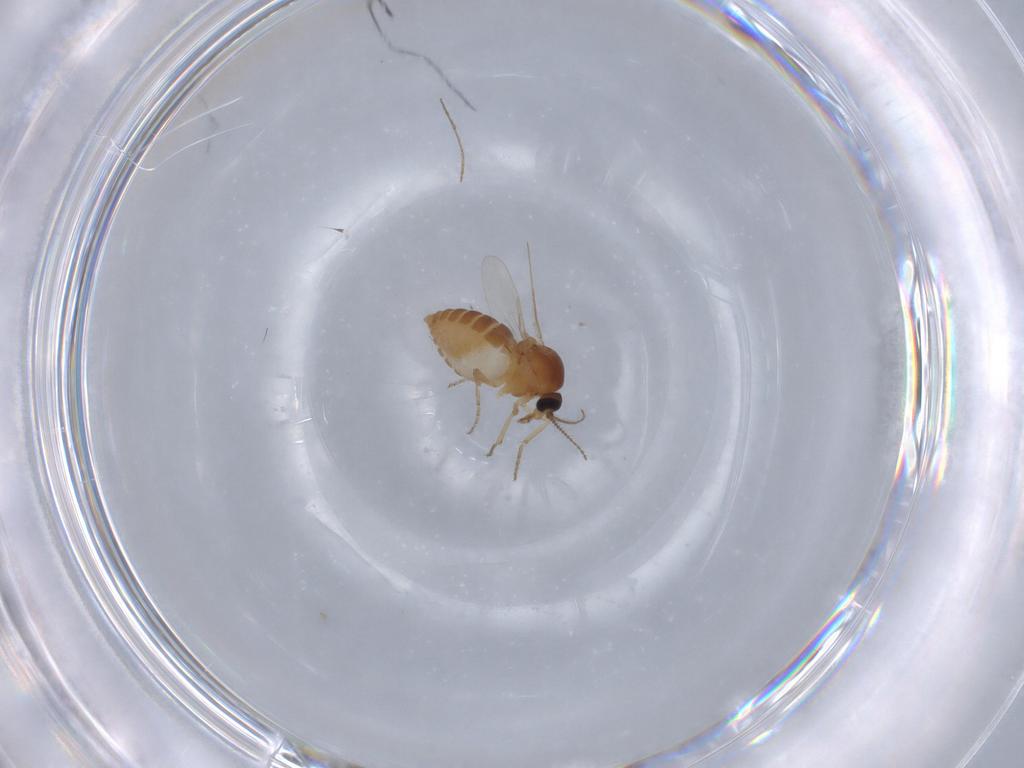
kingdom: Animalia
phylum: Arthropoda
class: Insecta
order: Diptera
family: Ceratopogonidae
